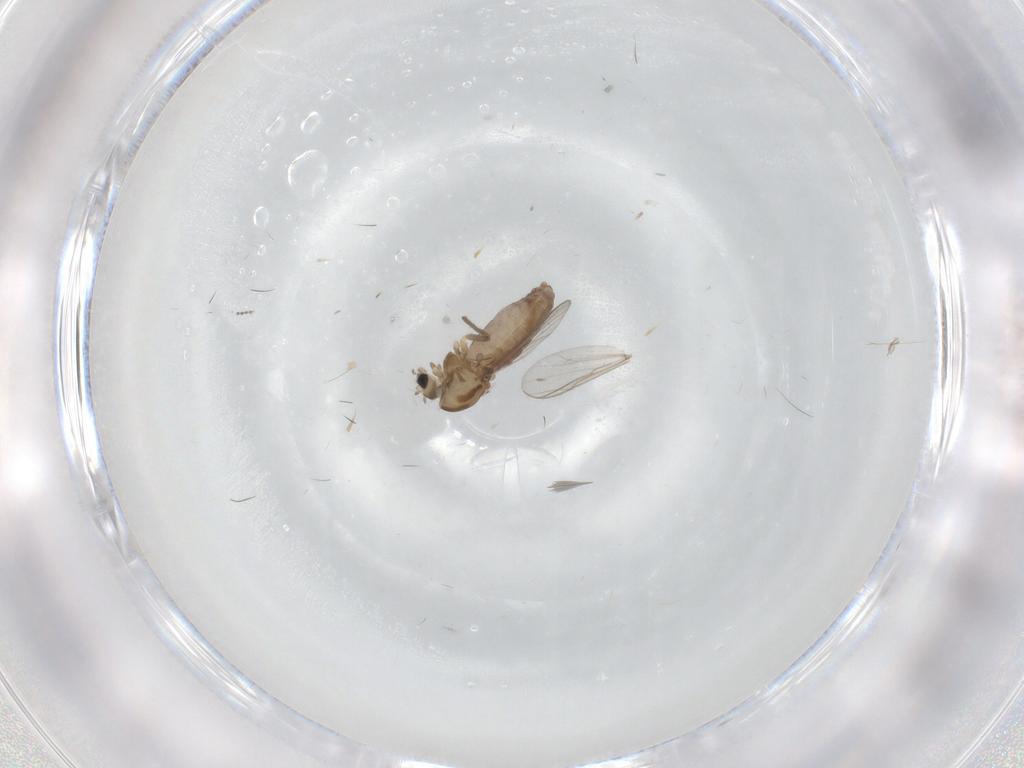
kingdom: Animalia
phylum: Arthropoda
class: Insecta
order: Diptera
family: Chironomidae
